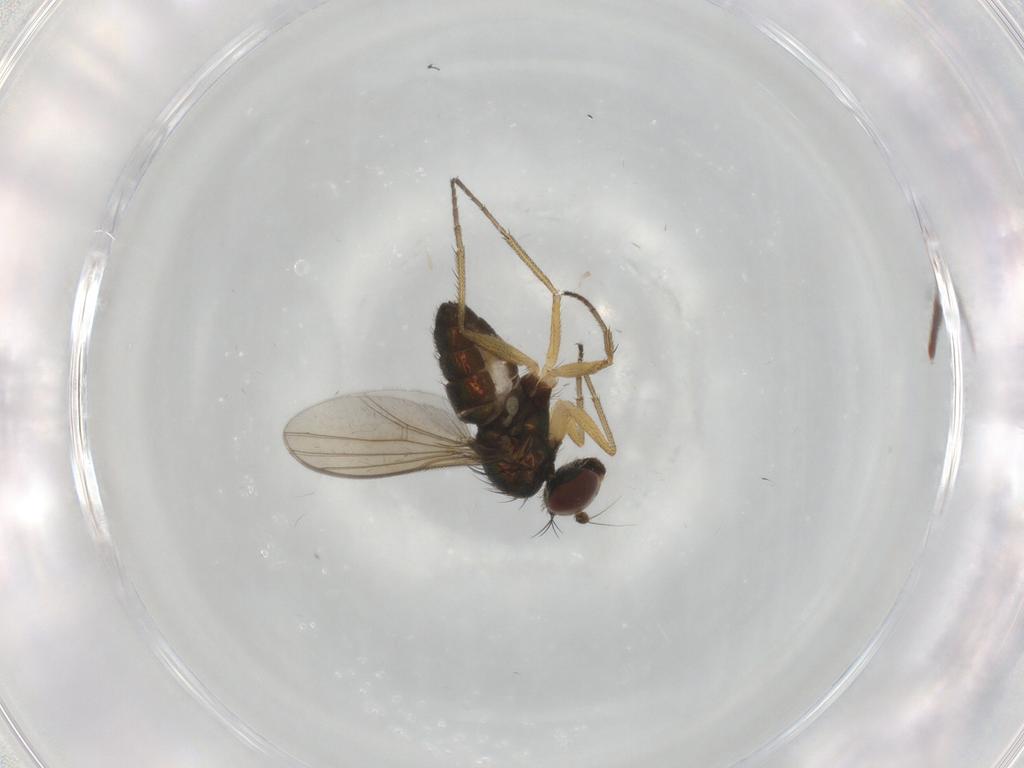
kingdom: Animalia
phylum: Arthropoda
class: Insecta
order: Diptera
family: Dolichopodidae
